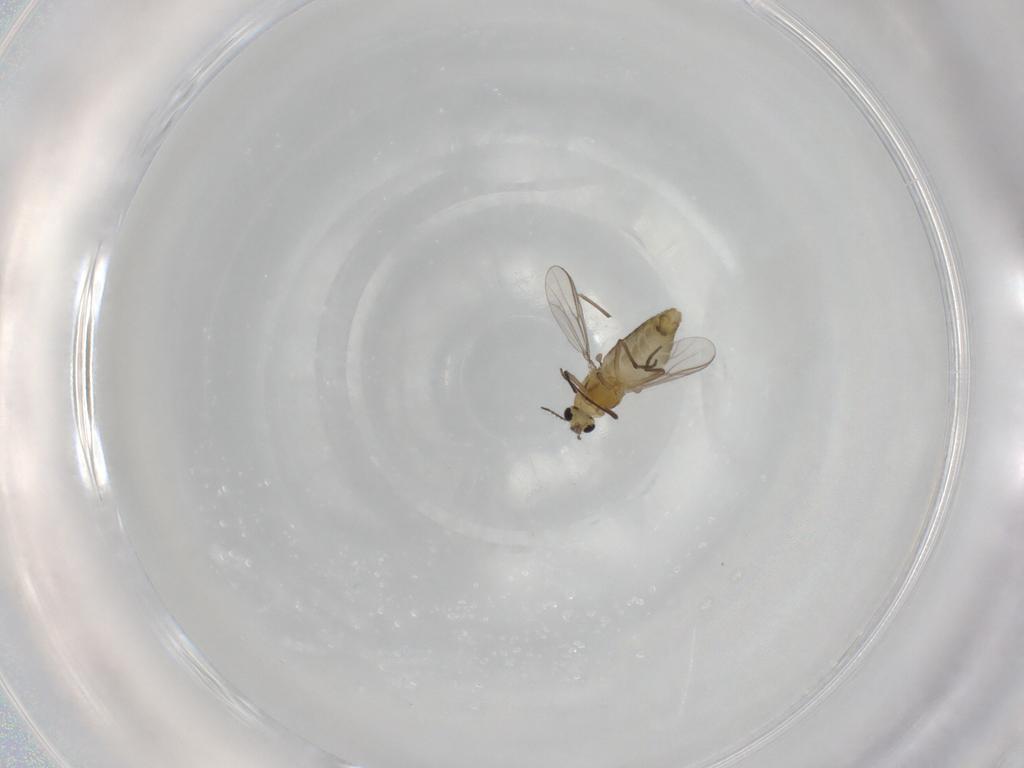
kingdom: Animalia
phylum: Arthropoda
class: Insecta
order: Diptera
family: Chironomidae
